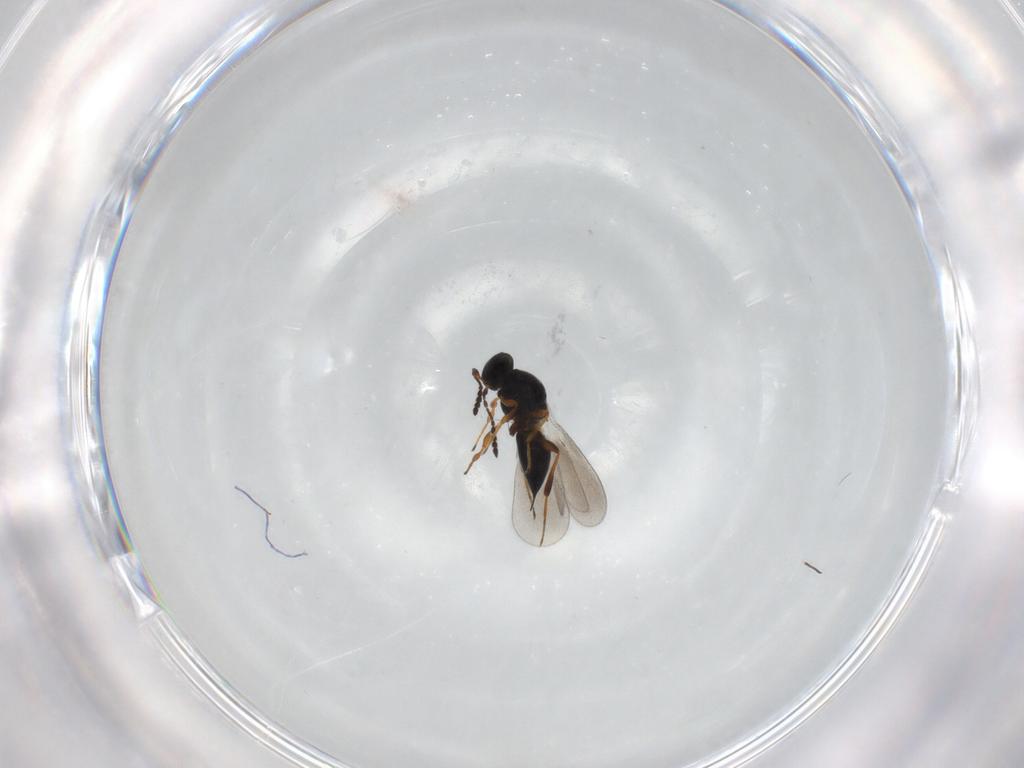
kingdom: Animalia
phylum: Arthropoda
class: Insecta
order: Hymenoptera
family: Platygastridae
